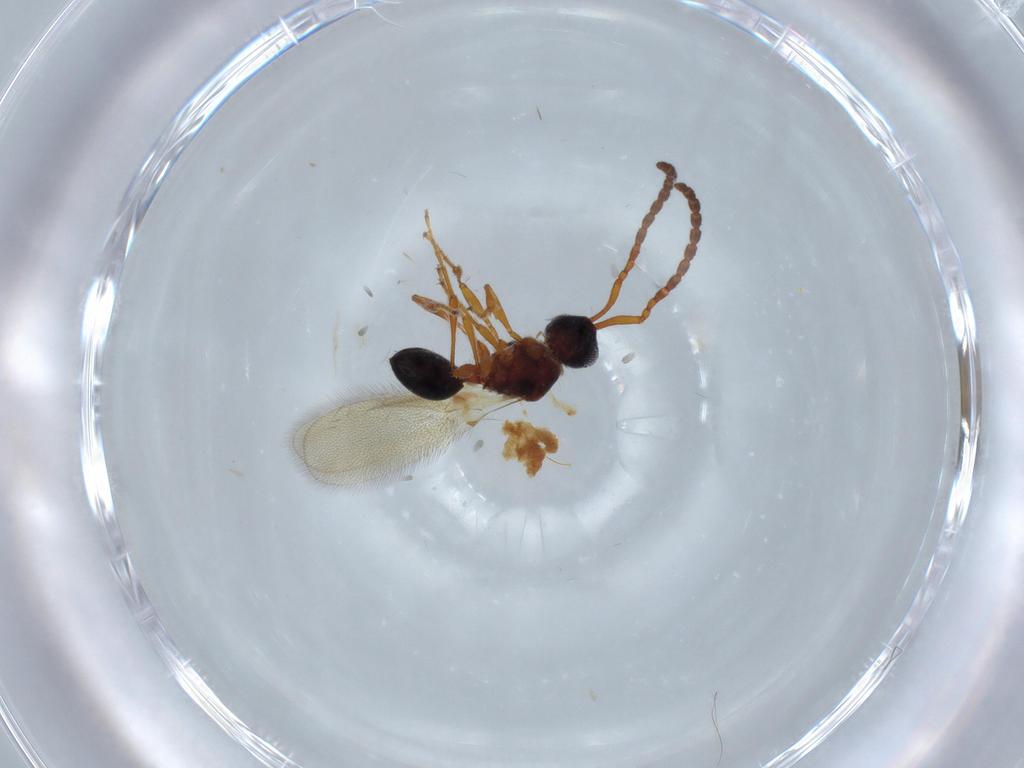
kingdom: Animalia
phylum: Arthropoda
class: Insecta
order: Hymenoptera
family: Diapriidae
